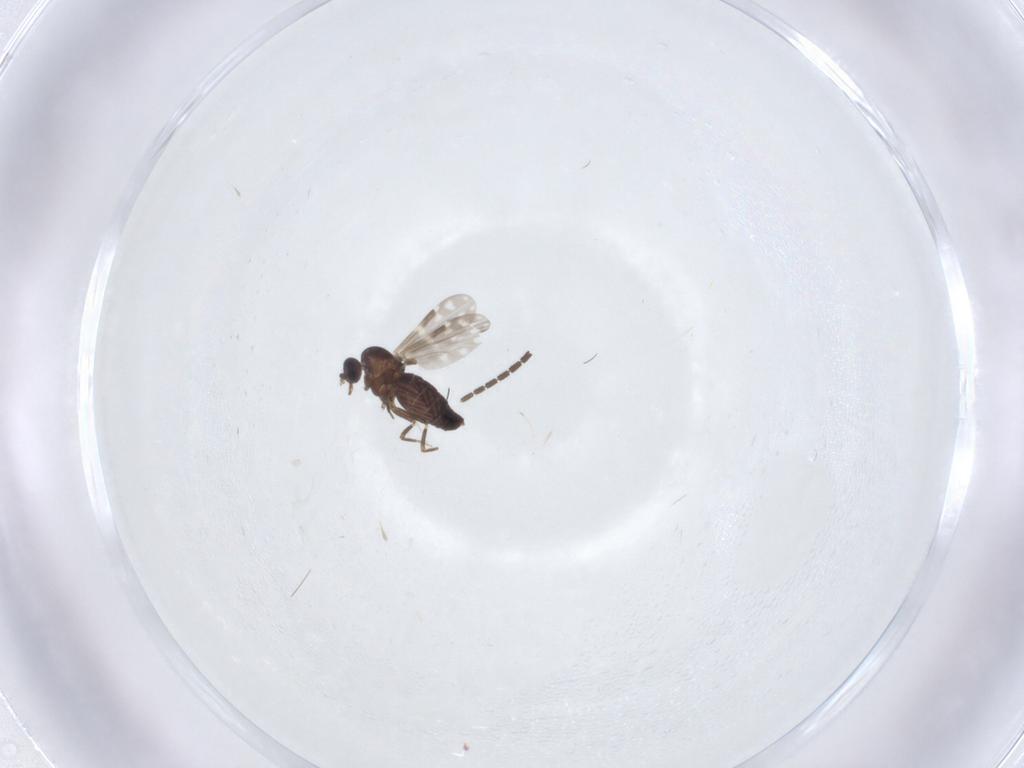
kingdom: Animalia
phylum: Arthropoda
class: Insecta
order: Diptera
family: Sciaridae
